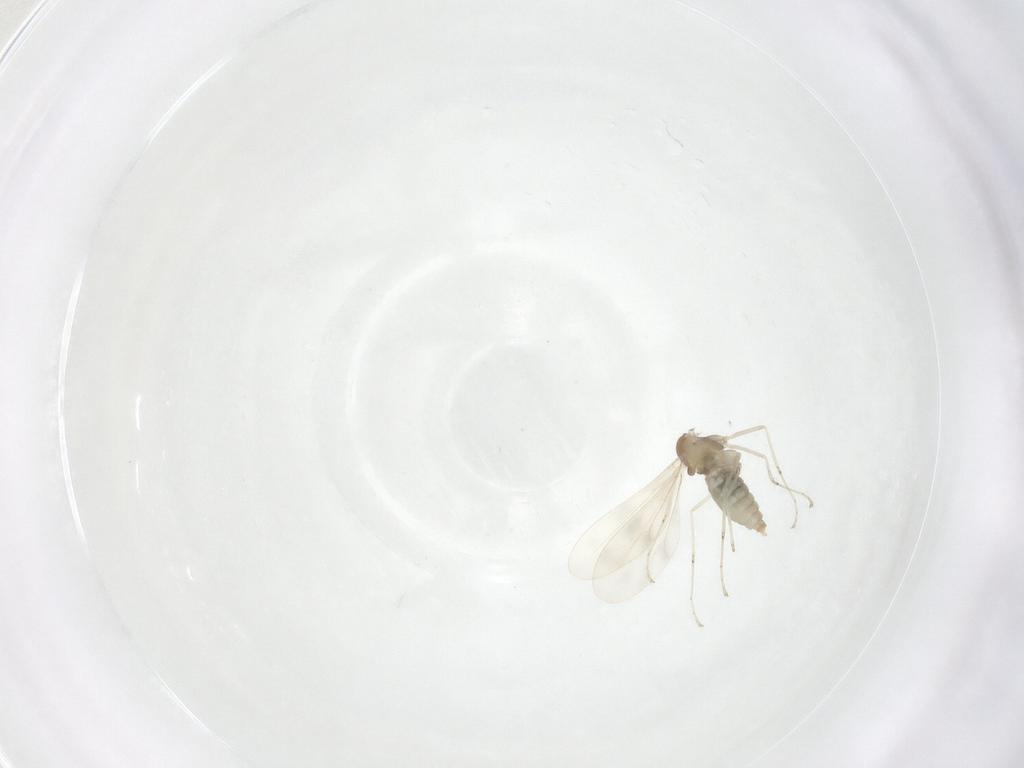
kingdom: Animalia
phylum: Arthropoda
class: Insecta
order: Diptera
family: Cecidomyiidae
